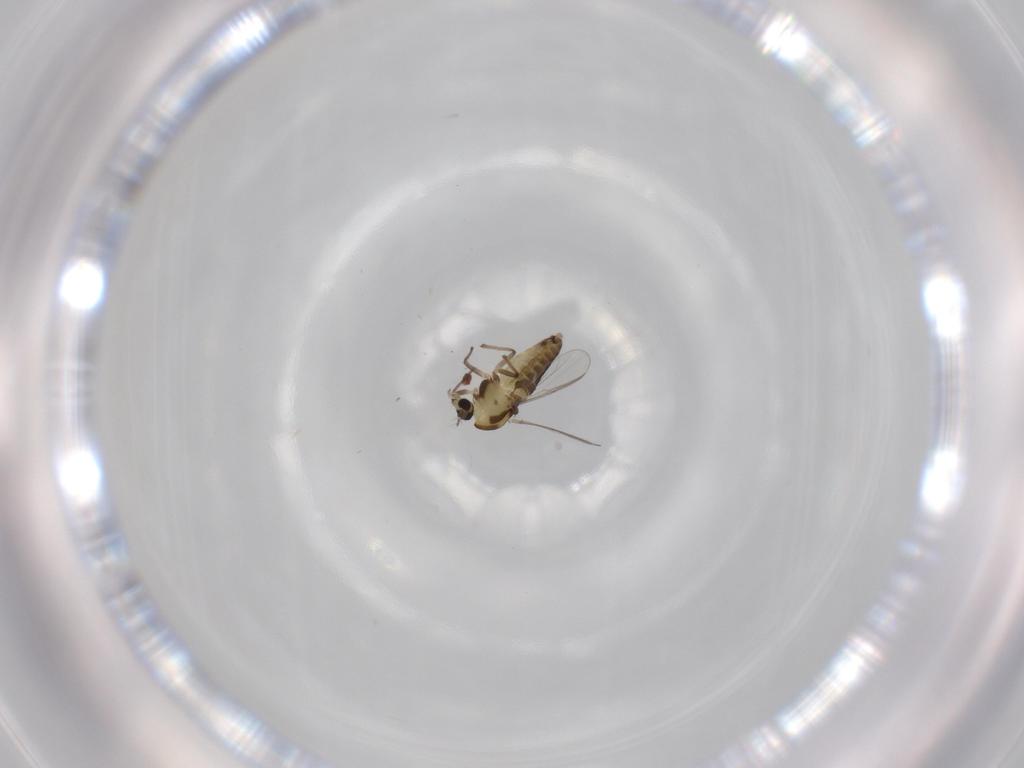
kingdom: Animalia
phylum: Arthropoda
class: Insecta
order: Diptera
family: Chironomidae
